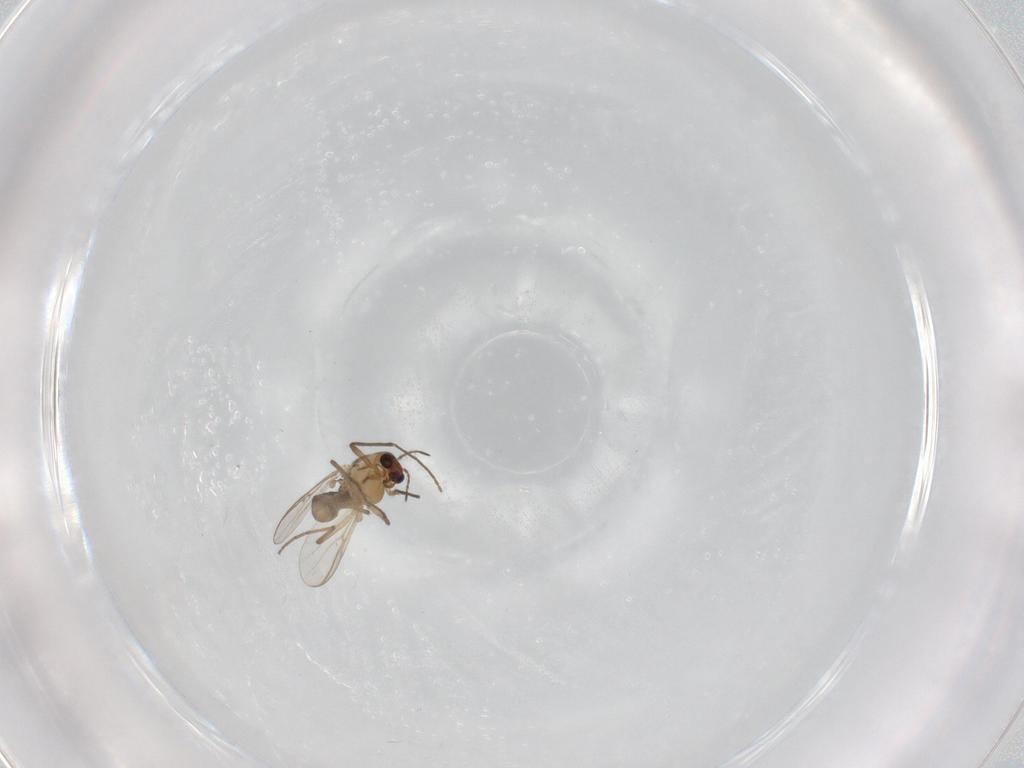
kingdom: Animalia
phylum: Arthropoda
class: Insecta
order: Diptera
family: Chironomidae
